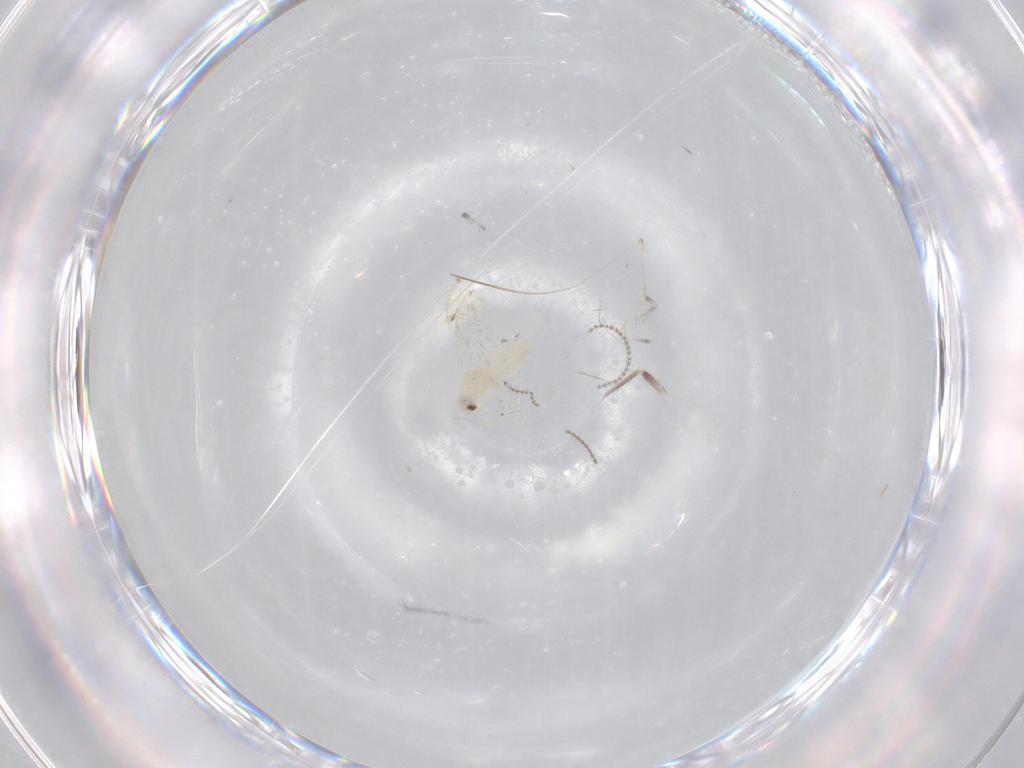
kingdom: Animalia
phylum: Arthropoda
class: Insecta
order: Hemiptera
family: Aleyrodidae
